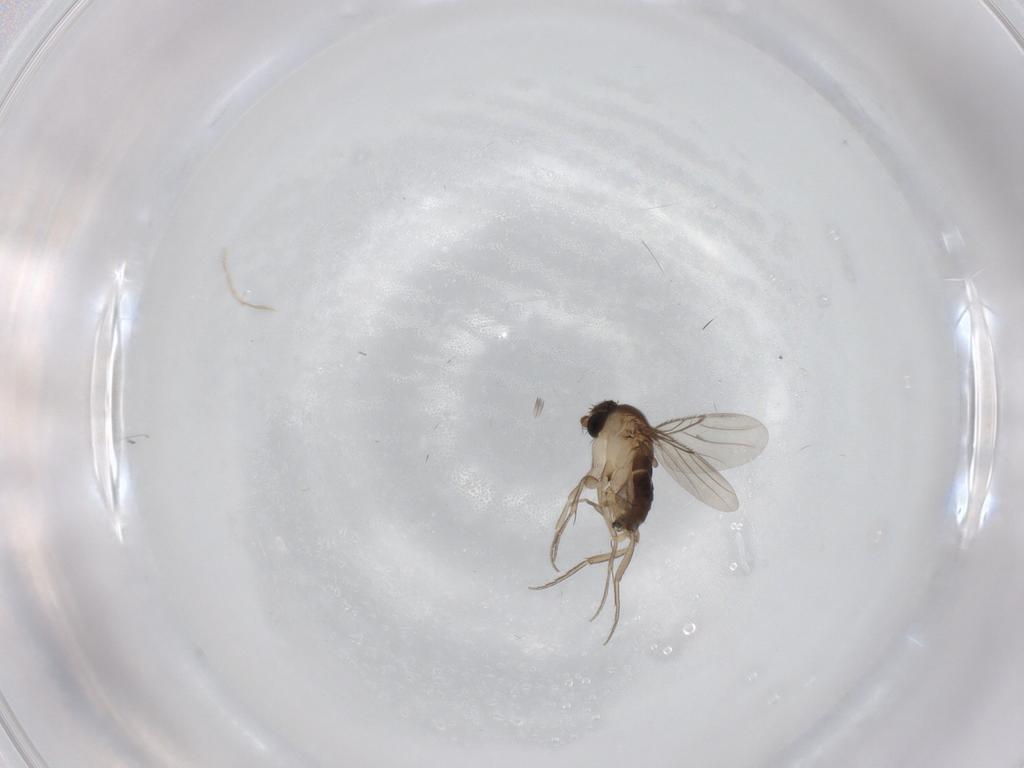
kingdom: Animalia
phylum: Arthropoda
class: Insecta
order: Diptera
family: Phoridae
